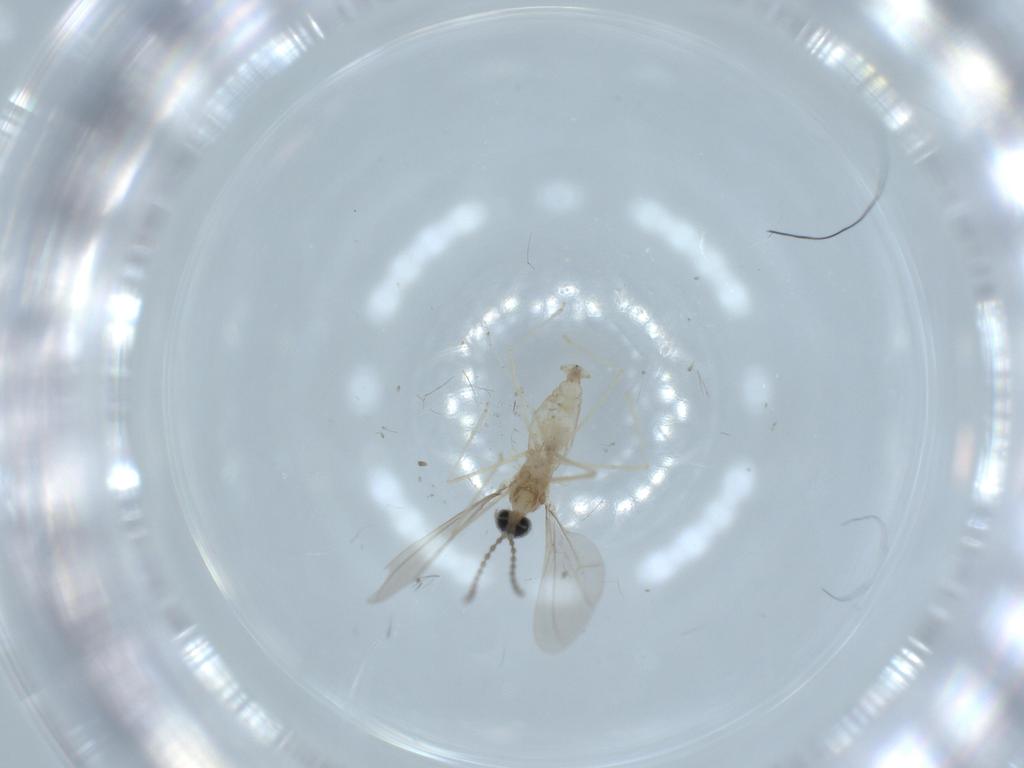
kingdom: Animalia
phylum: Arthropoda
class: Insecta
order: Diptera
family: Cecidomyiidae
